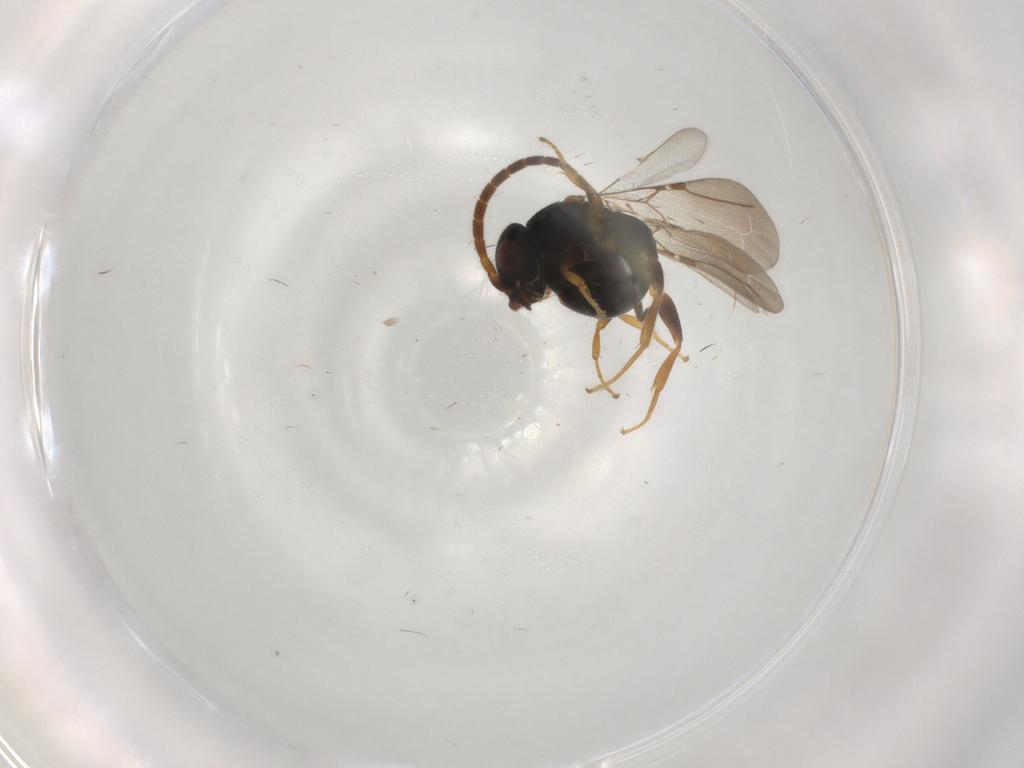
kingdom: Animalia
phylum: Arthropoda
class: Insecta
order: Hymenoptera
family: Bethylidae
